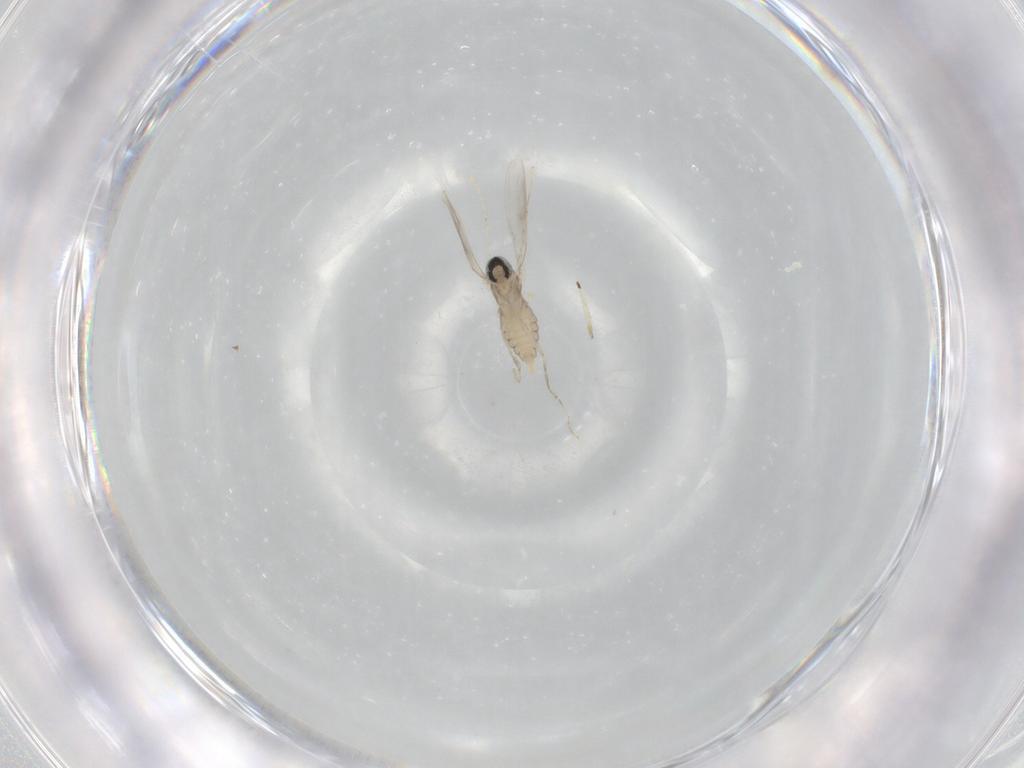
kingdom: Animalia
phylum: Arthropoda
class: Insecta
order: Diptera
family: Cecidomyiidae
